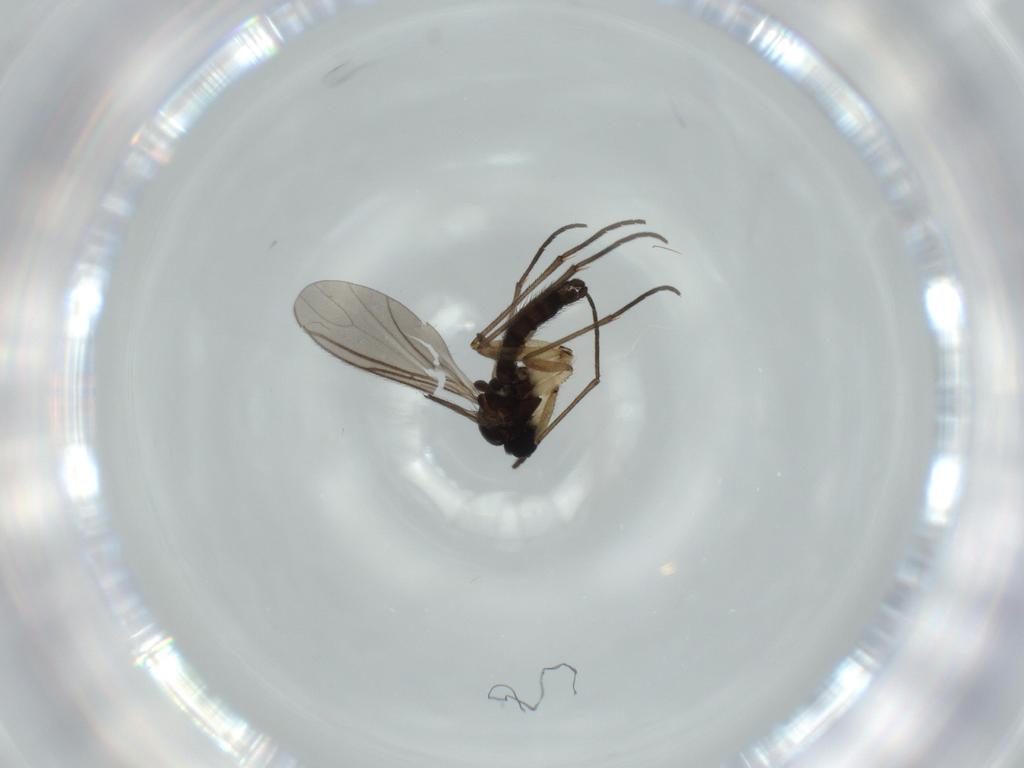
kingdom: Animalia
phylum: Arthropoda
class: Insecta
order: Diptera
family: Sciaridae
